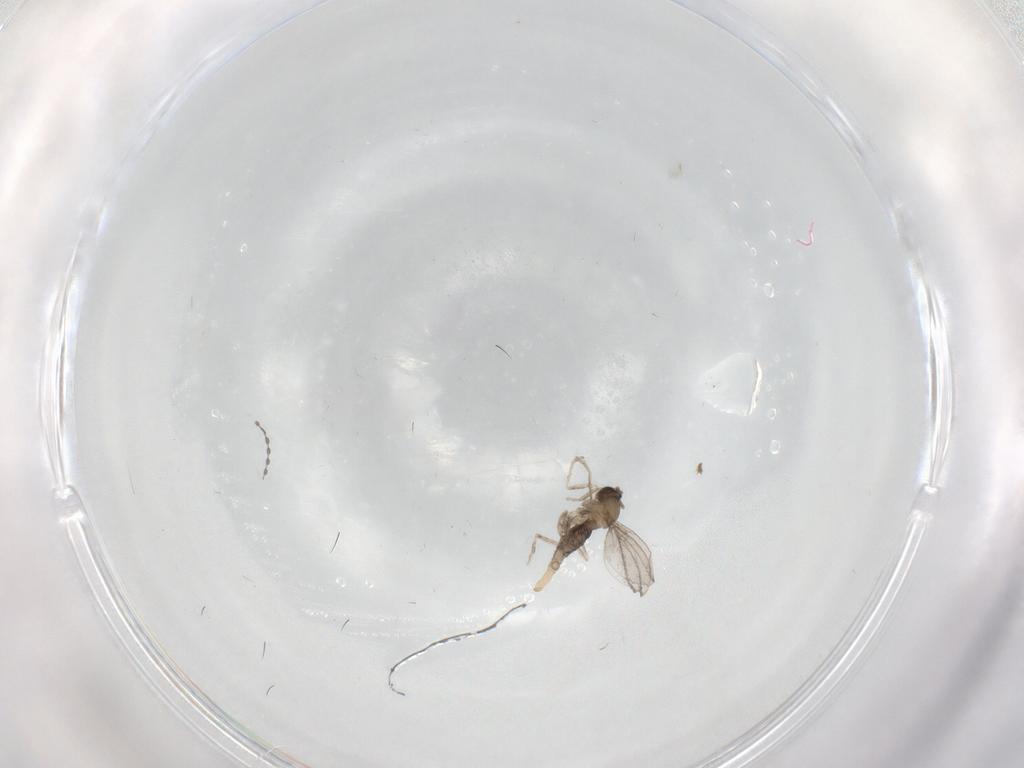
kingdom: Animalia
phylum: Arthropoda
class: Insecta
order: Diptera
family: Cecidomyiidae
